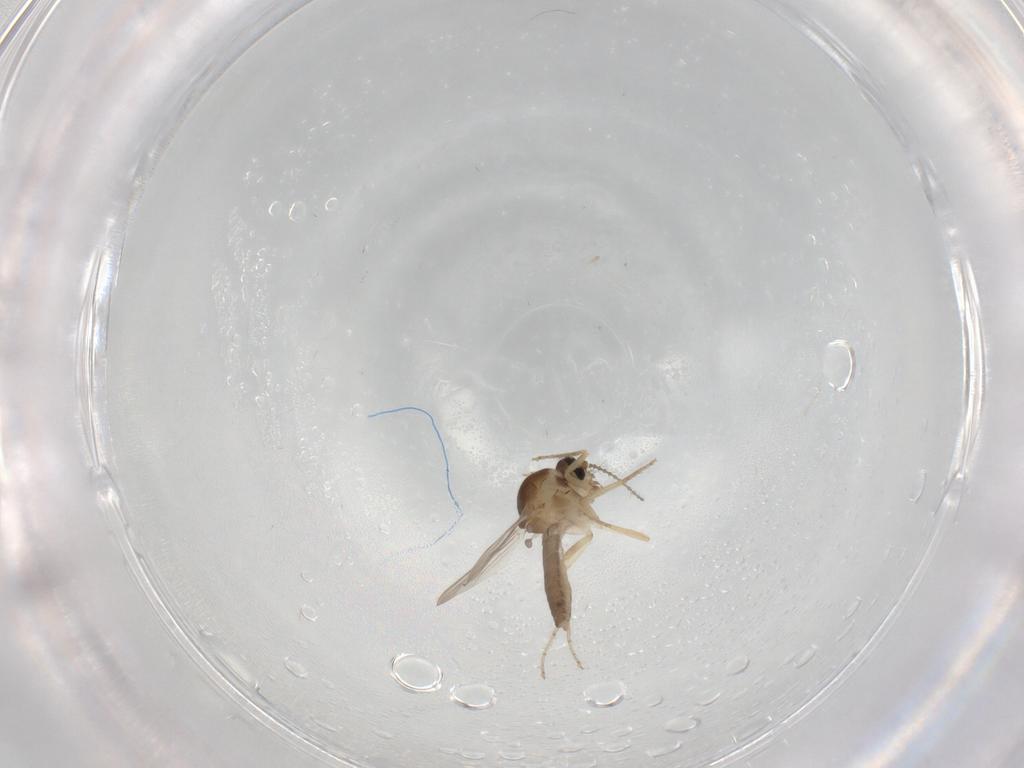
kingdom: Animalia
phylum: Arthropoda
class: Insecta
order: Diptera
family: Ceratopogonidae
